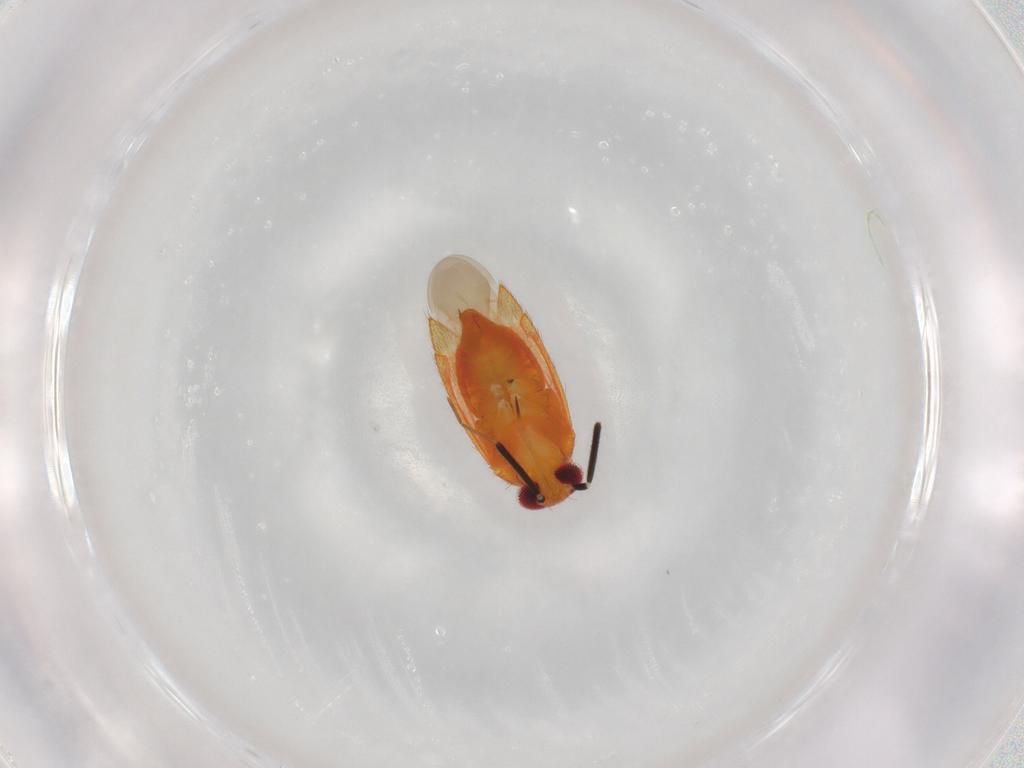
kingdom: Animalia
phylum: Arthropoda
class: Insecta
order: Hemiptera
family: Miridae
